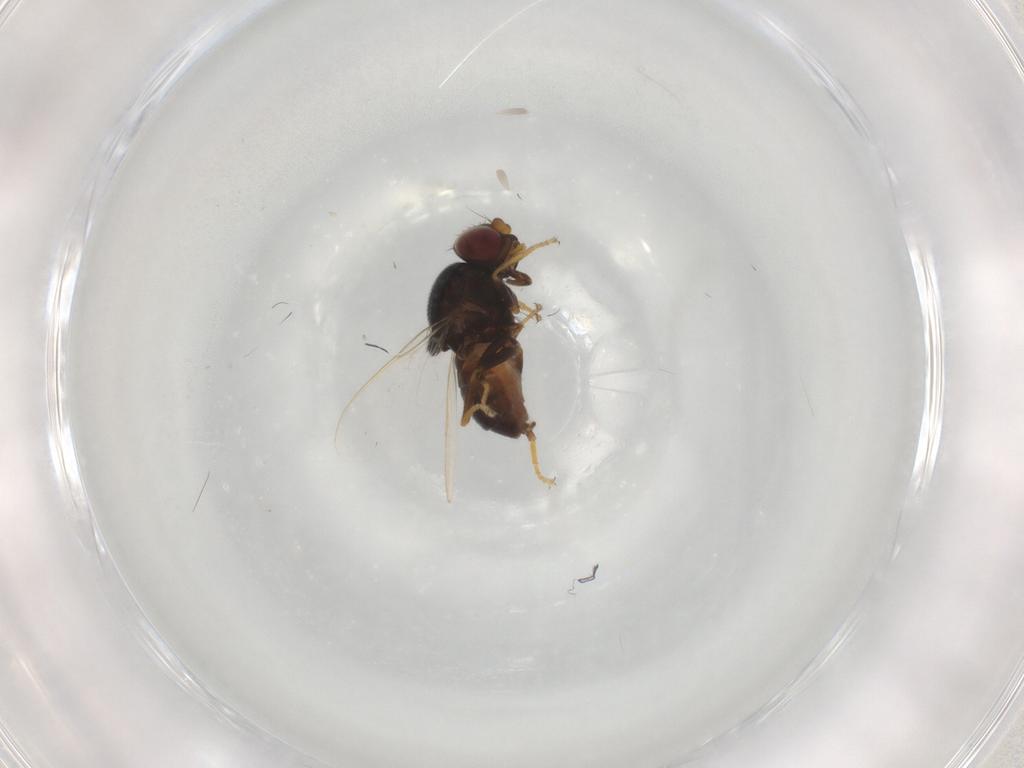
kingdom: Animalia
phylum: Arthropoda
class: Insecta
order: Diptera
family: Chloropidae
